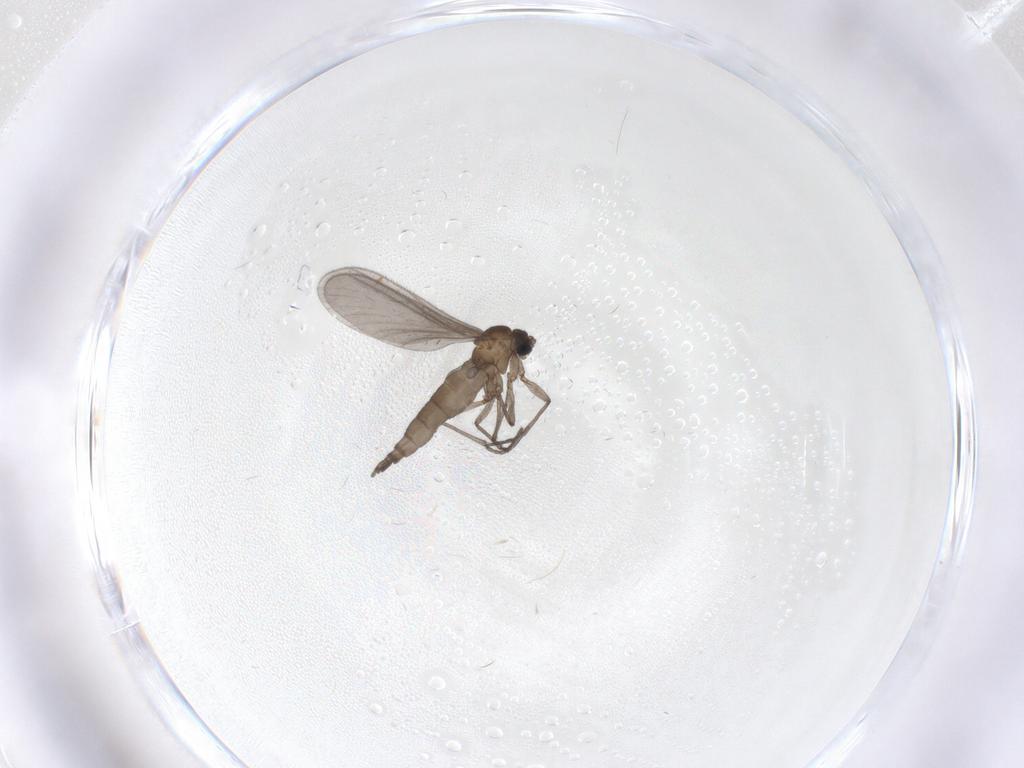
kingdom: Animalia
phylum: Arthropoda
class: Insecta
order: Diptera
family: Sciaridae
